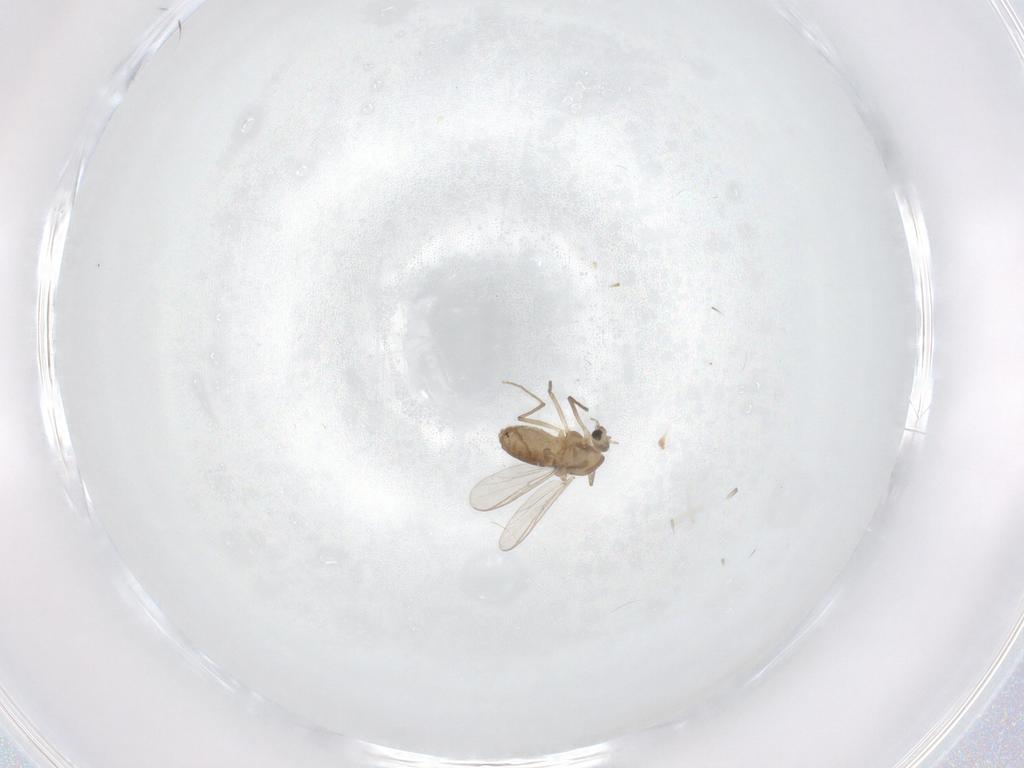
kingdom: Animalia
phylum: Arthropoda
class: Insecta
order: Diptera
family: Chironomidae
